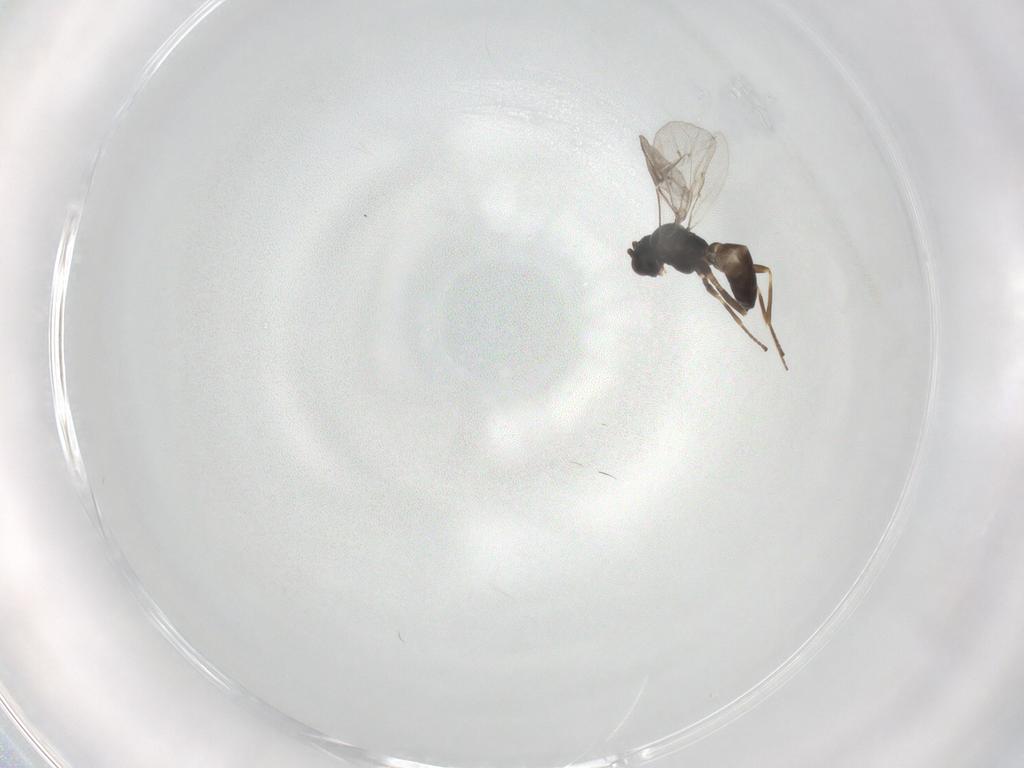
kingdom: Animalia
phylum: Arthropoda
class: Insecta
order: Hymenoptera
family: Braconidae
